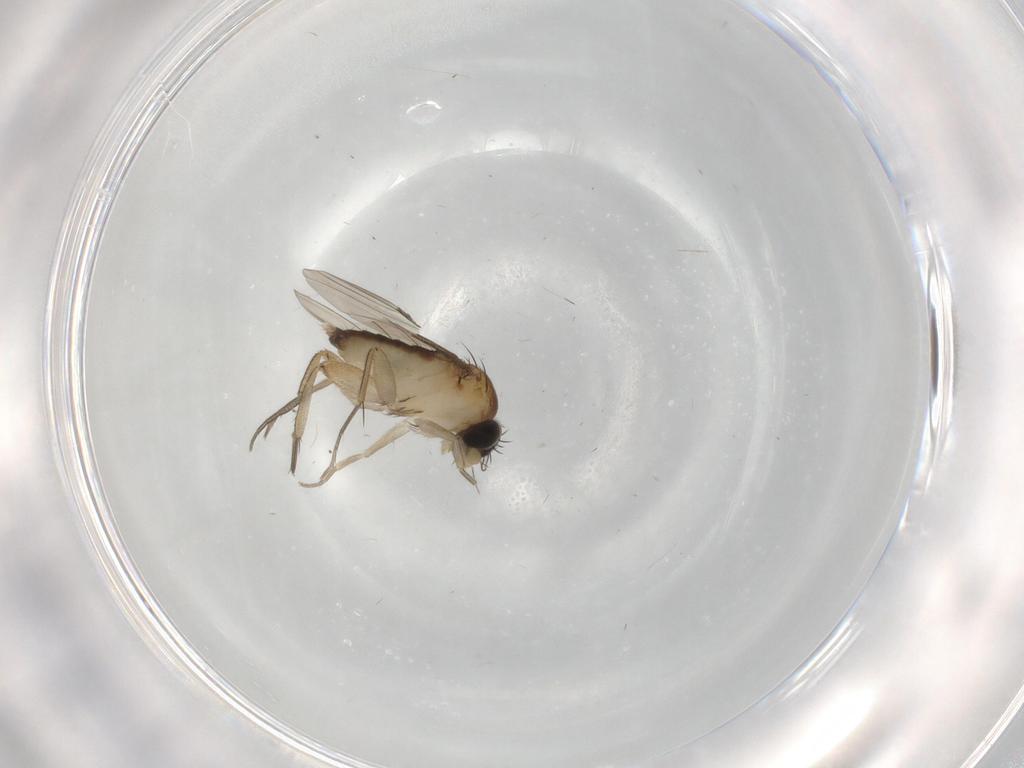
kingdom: Animalia
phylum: Arthropoda
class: Insecta
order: Diptera
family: Phoridae
